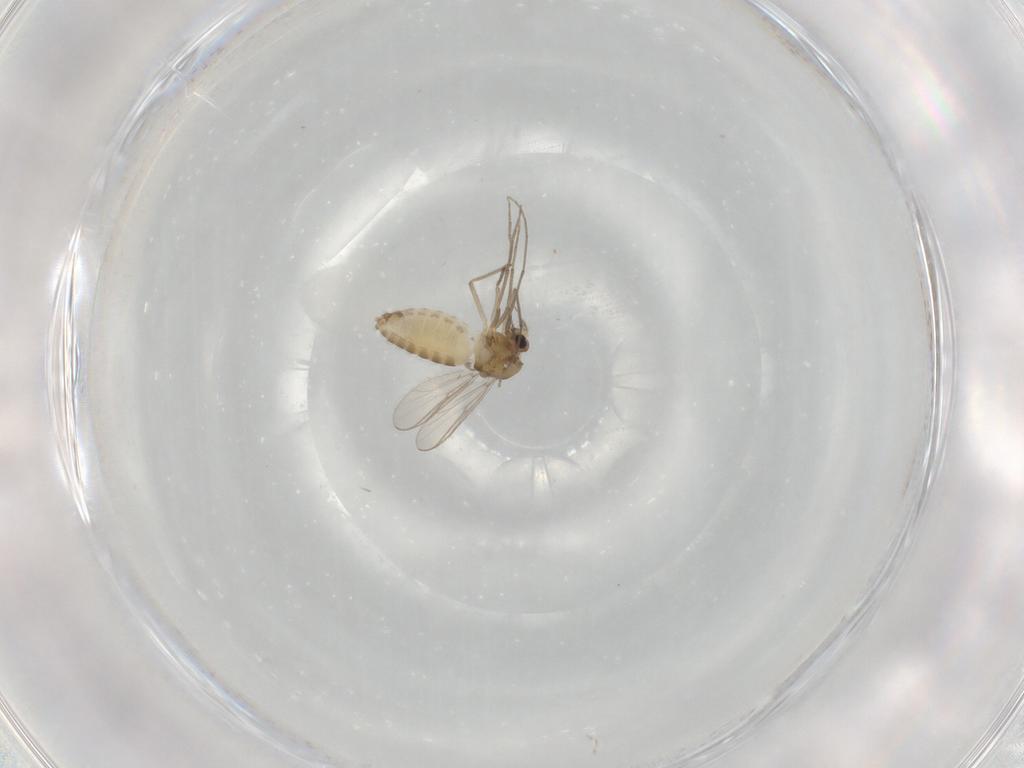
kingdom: Animalia
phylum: Arthropoda
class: Insecta
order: Diptera
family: Chironomidae
